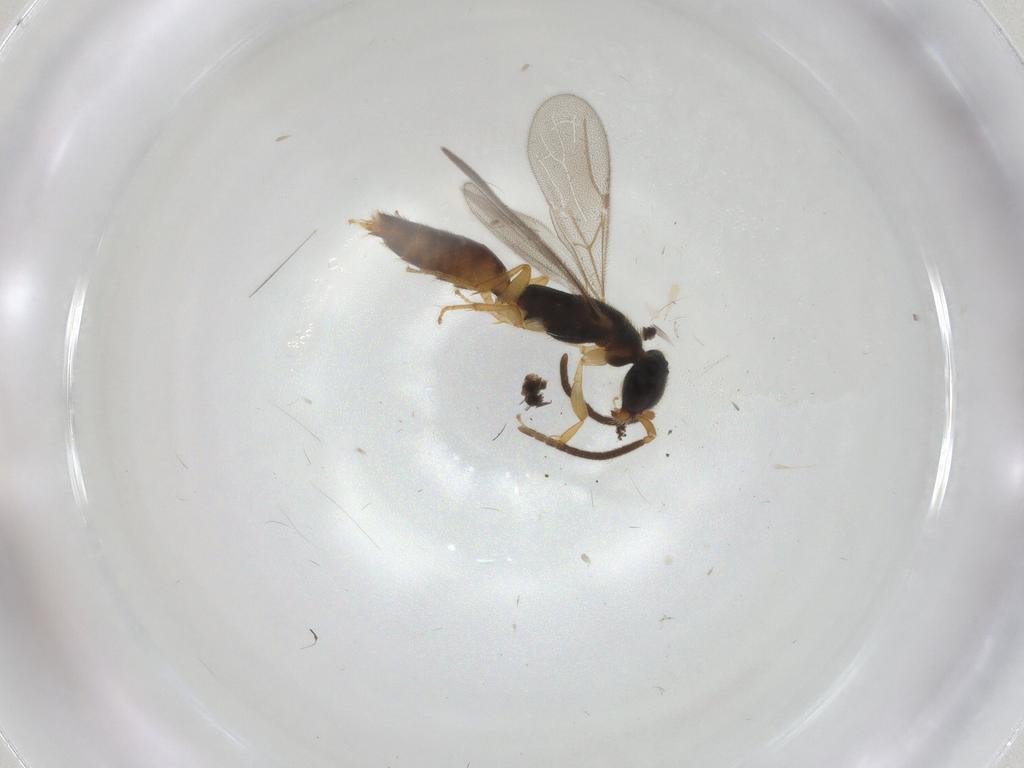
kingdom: Animalia
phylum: Arthropoda
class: Insecta
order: Hymenoptera
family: Bethylidae
